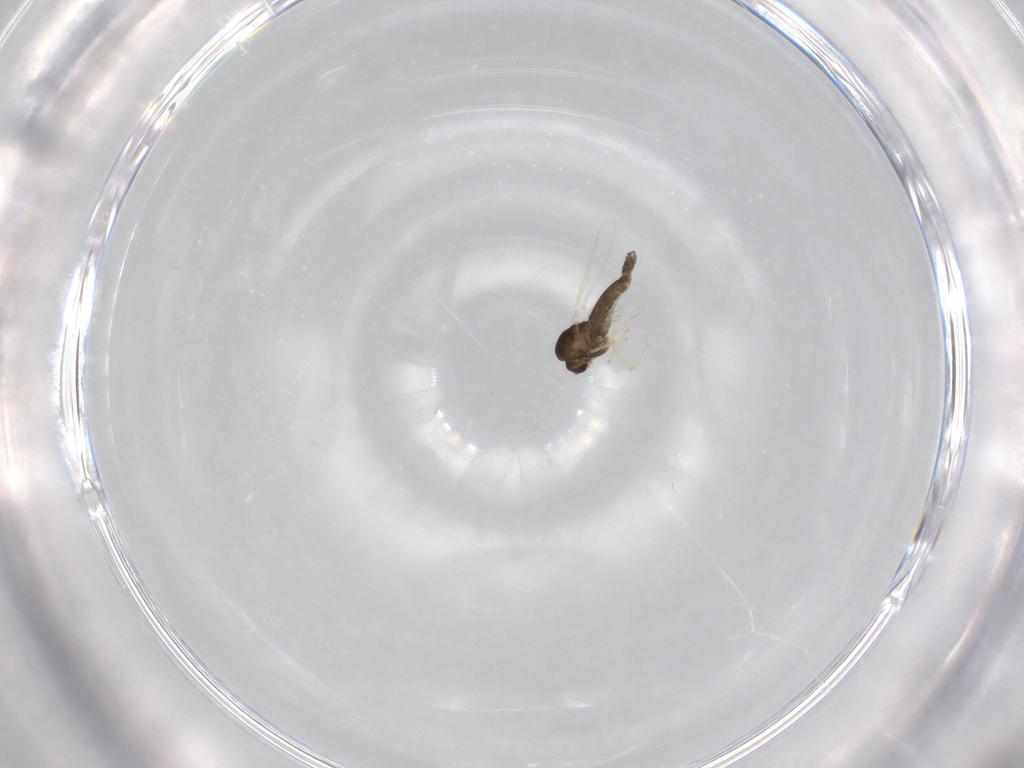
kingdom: Animalia
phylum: Arthropoda
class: Insecta
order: Diptera
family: Chironomidae
